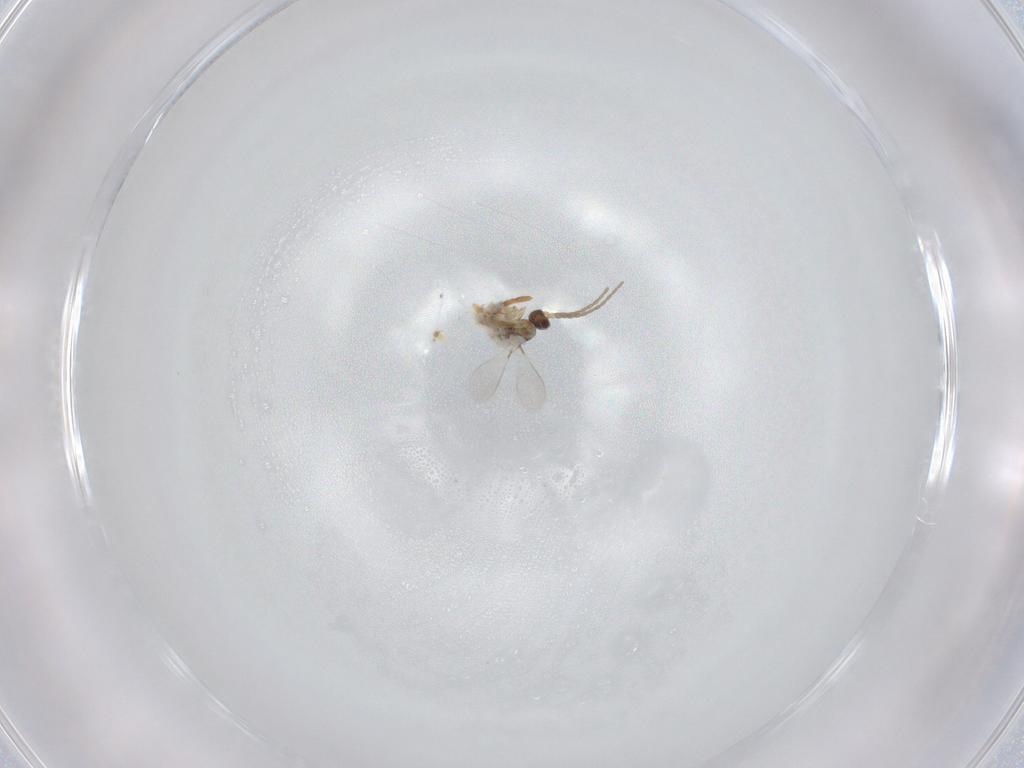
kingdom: Animalia
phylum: Arthropoda
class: Insecta
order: Hymenoptera
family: Formicidae
